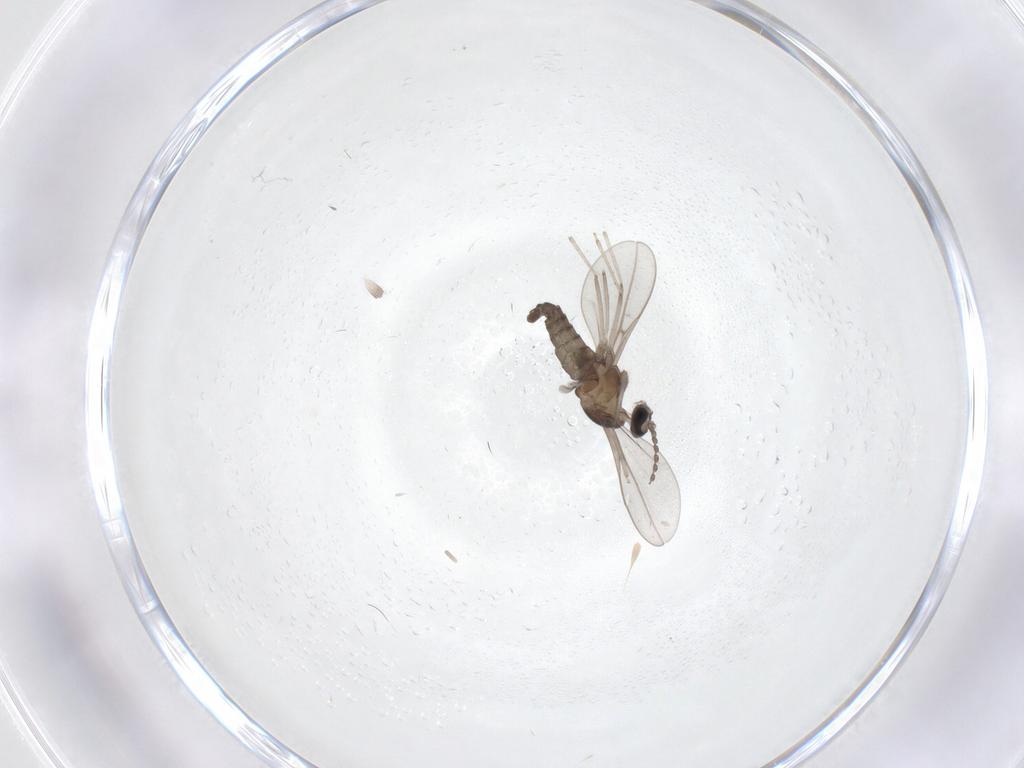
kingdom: Animalia
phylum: Arthropoda
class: Insecta
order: Diptera
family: Cecidomyiidae
